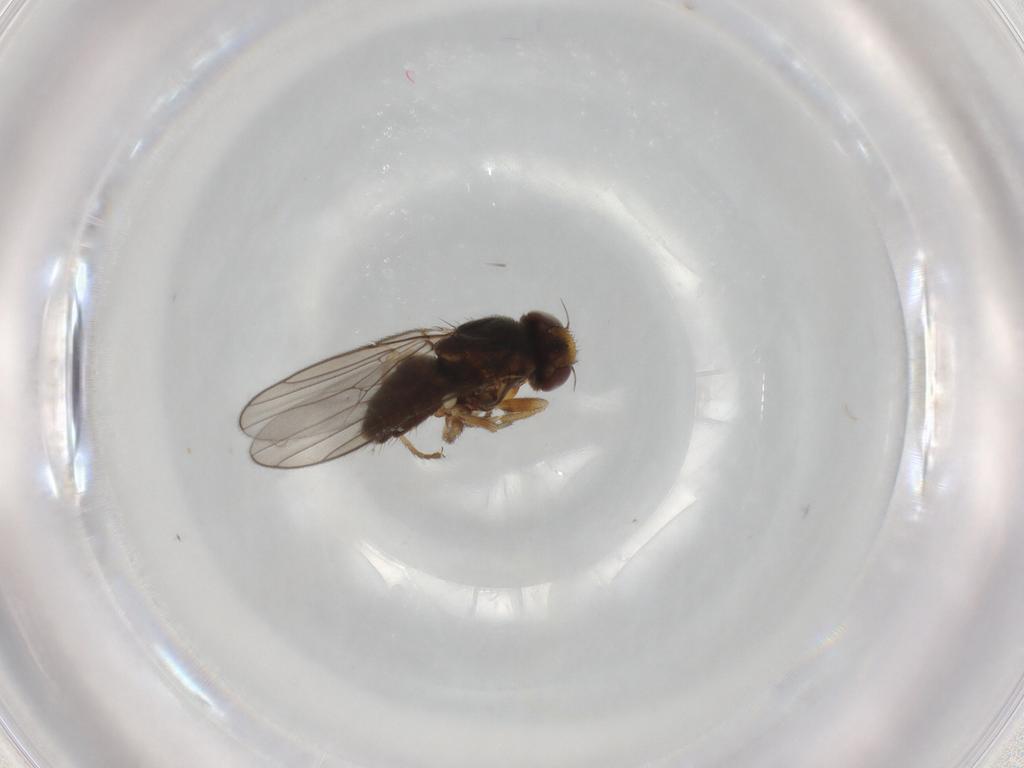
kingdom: Animalia
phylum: Arthropoda
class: Insecta
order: Diptera
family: Chloropidae
